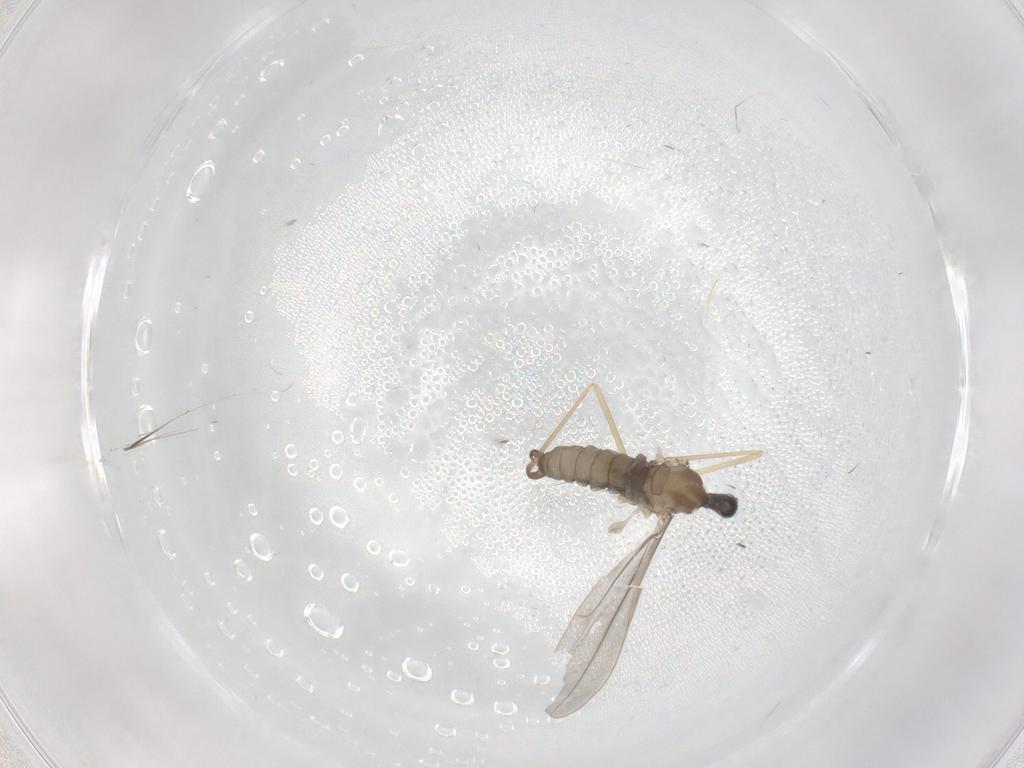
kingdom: Animalia
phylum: Arthropoda
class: Insecta
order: Diptera
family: Cecidomyiidae
